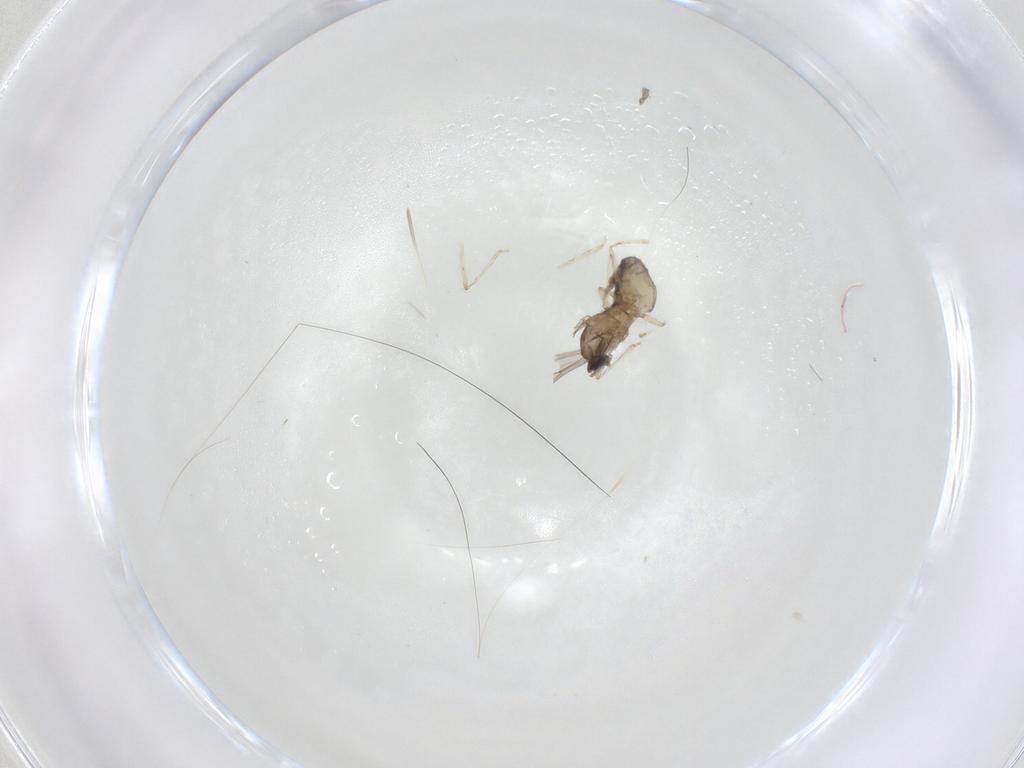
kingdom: Animalia
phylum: Arthropoda
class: Insecta
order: Diptera
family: Cecidomyiidae
